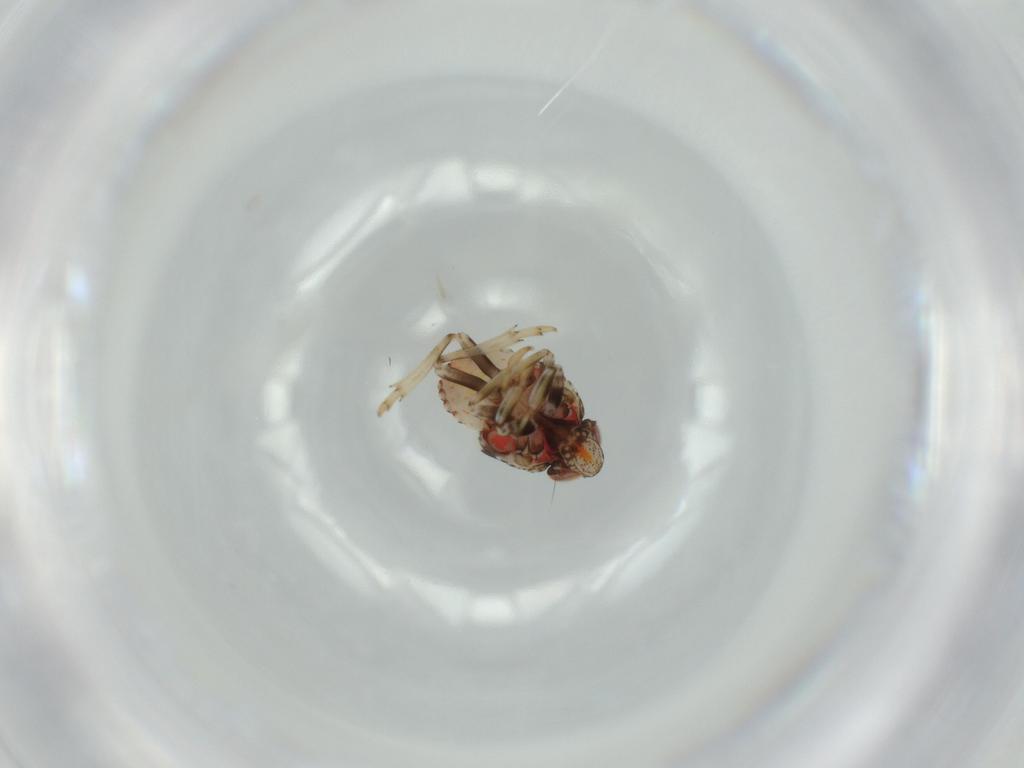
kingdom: Animalia
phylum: Arthropoda
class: Insecta
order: Hemiptera
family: Issidae
